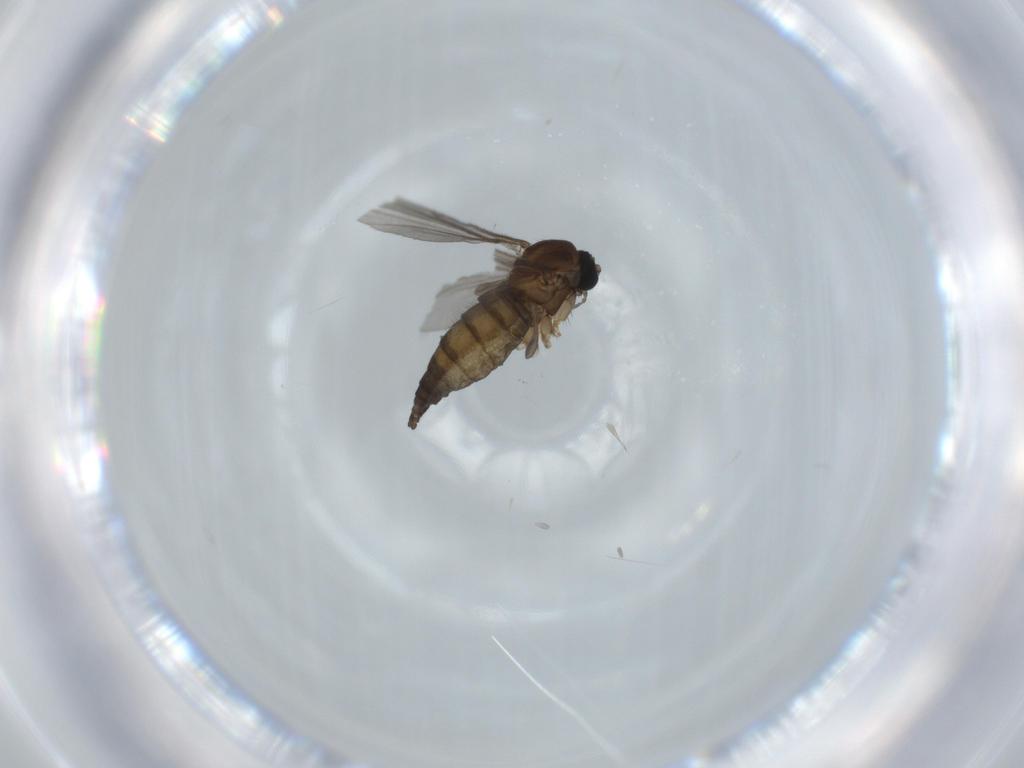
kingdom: Animalia
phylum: Arthropoda
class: Insecta
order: Diptera
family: Sciaridae
